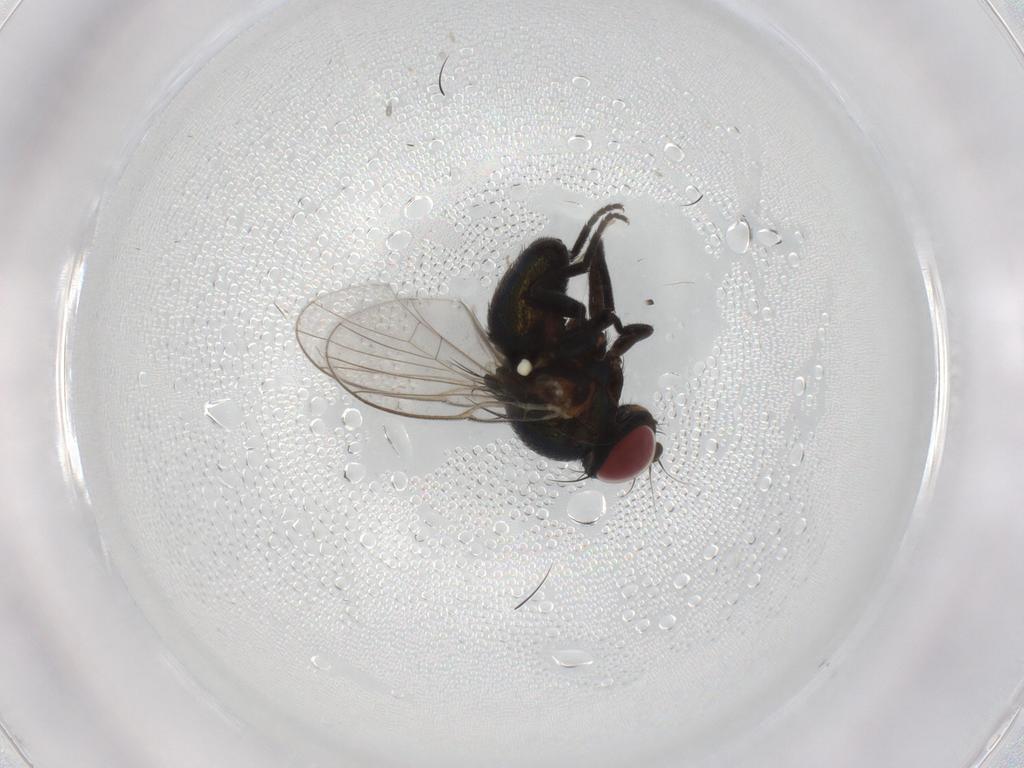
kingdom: Animalia
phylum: Arthropoda
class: Insecta
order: Diptera
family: Agromyzidae
